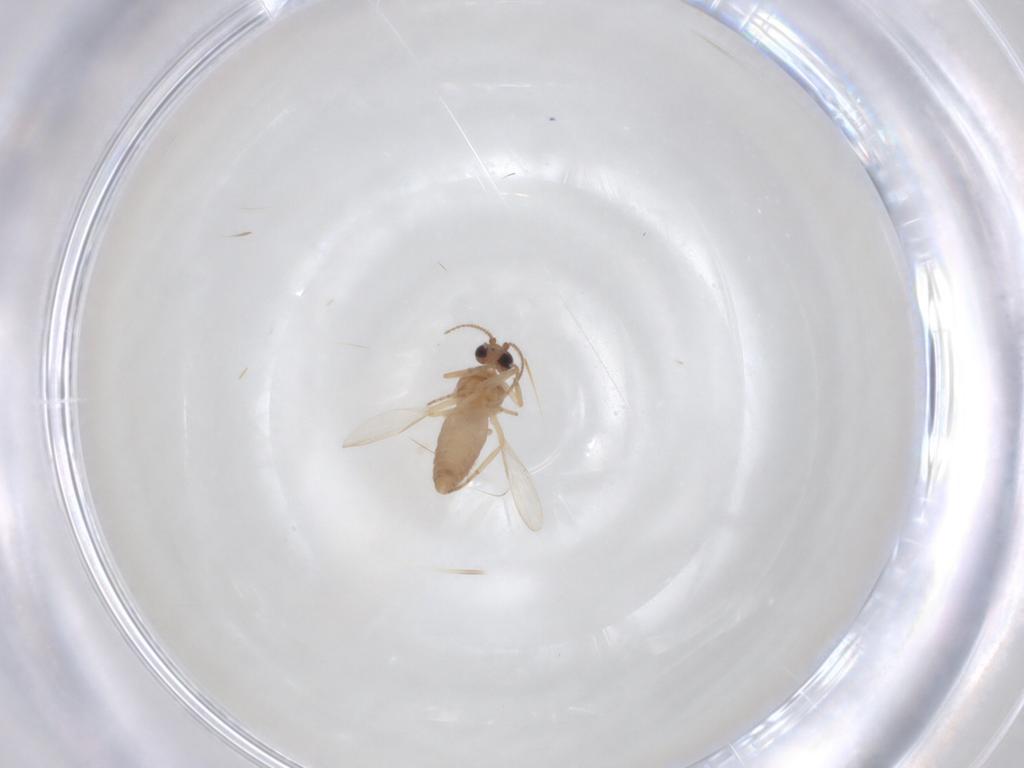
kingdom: Animalia
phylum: Arthropoda
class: Insecta
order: Diptera
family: Ceratopogonidae
